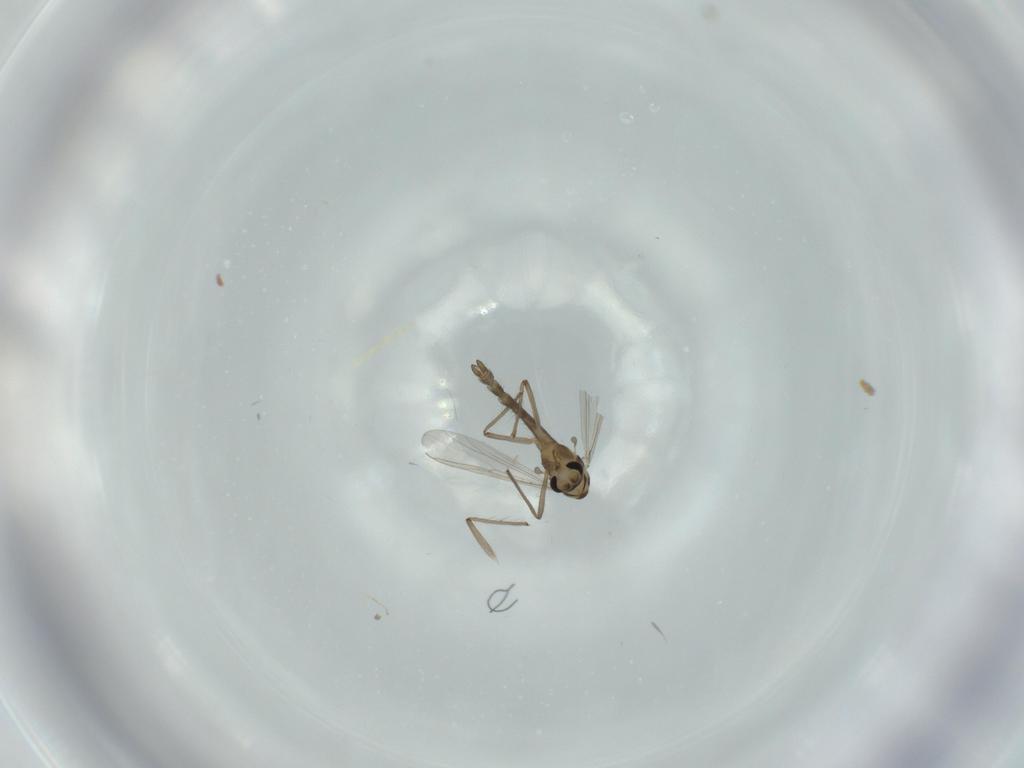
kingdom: Animalia
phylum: Arthropoda
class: Insecta
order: Diptera
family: Chironomidae
